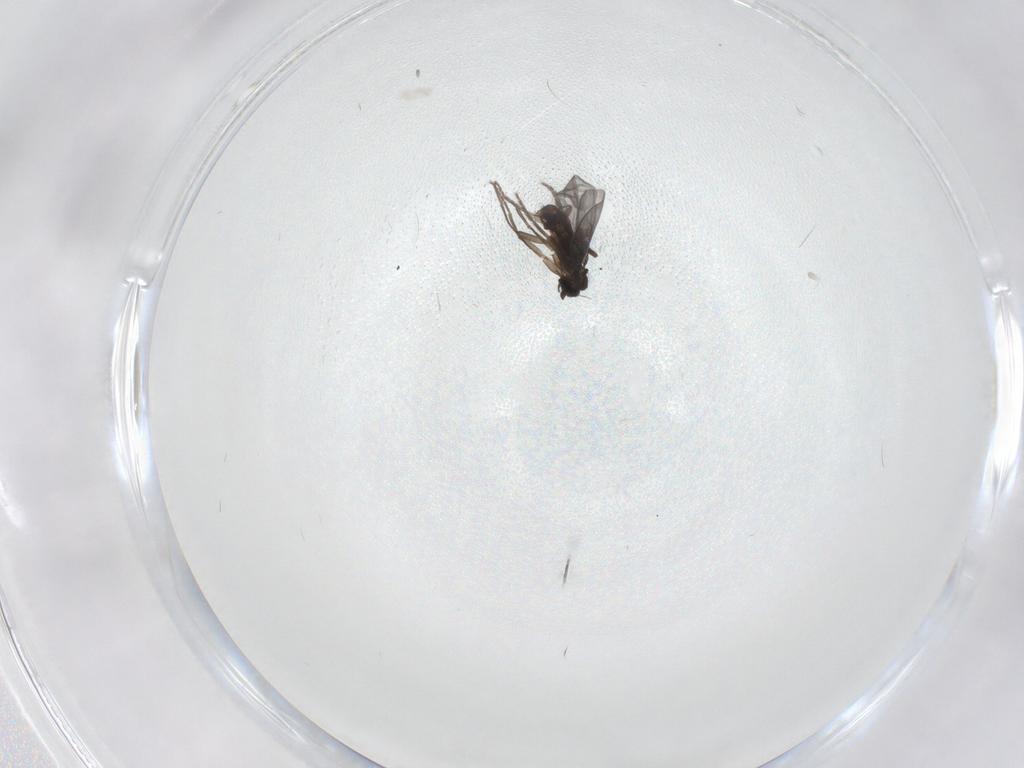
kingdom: Animalia
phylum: Arthropoda
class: Insecta
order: Diptera
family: Phoridae
